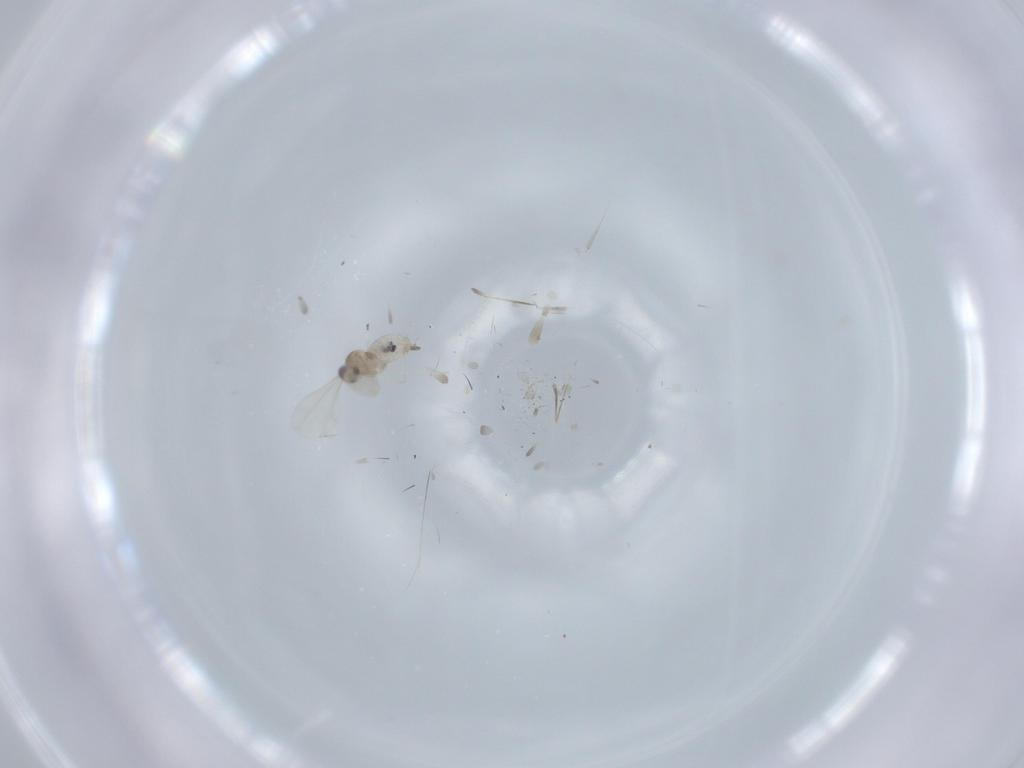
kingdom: Animalia
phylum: Arthropoda
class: Insecta
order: Diptera
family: Cecidomyiidae
